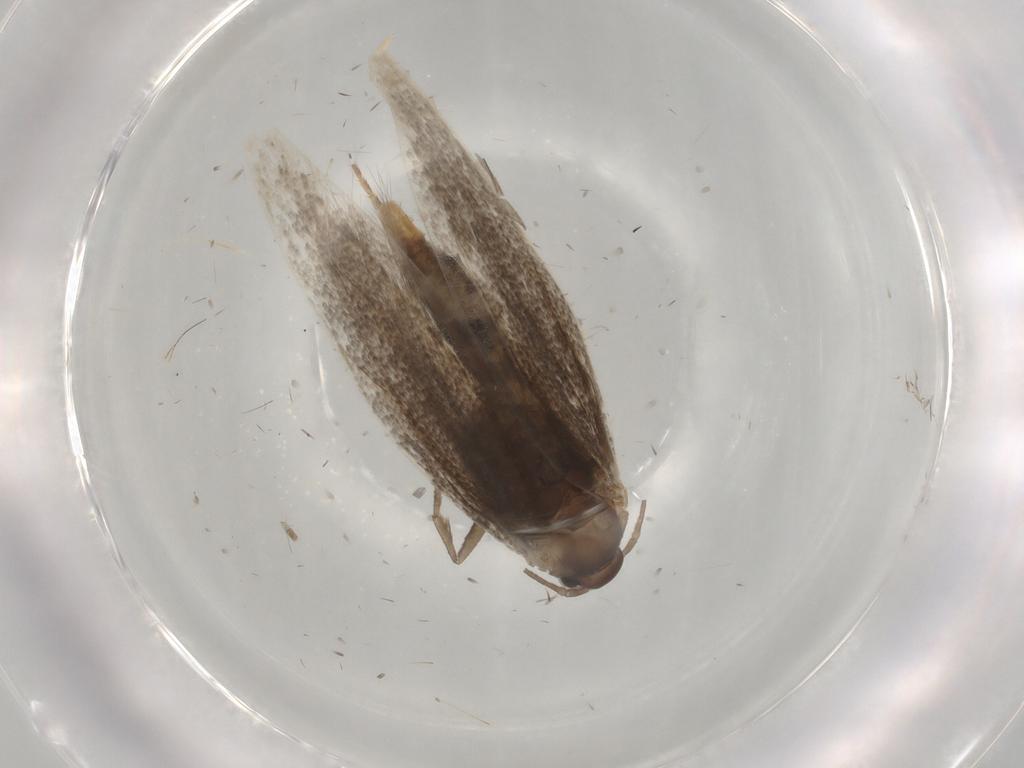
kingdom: Animalia
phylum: Arthropoda
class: Insecta
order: Lepidoptera
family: Elachistidae
